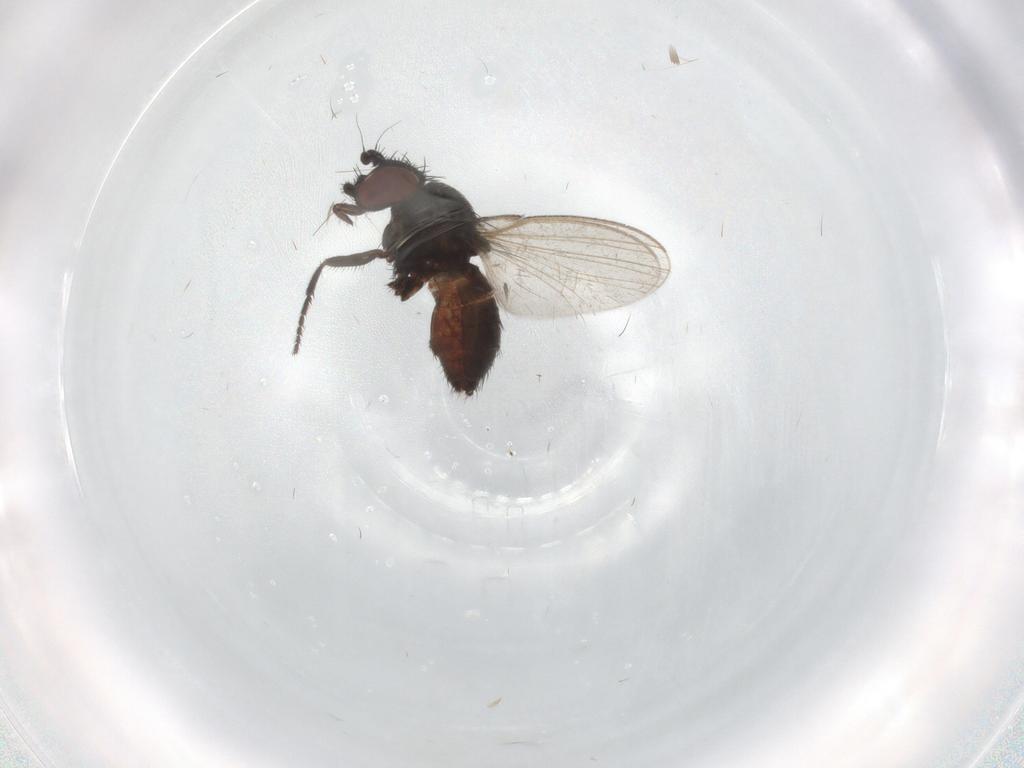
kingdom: Animalia
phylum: Arthropoda
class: Insecta
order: Diptera
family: Milichiidae
